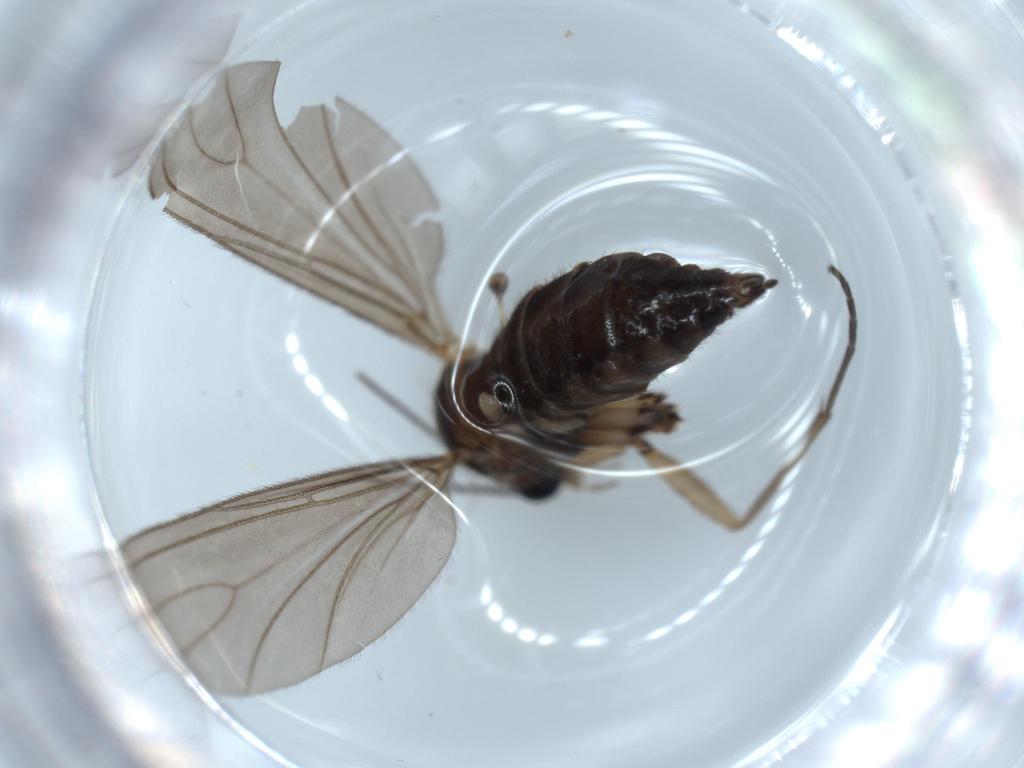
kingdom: Animalia
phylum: Arthropoda
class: Insecta
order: Diptera
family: Sciaridae
